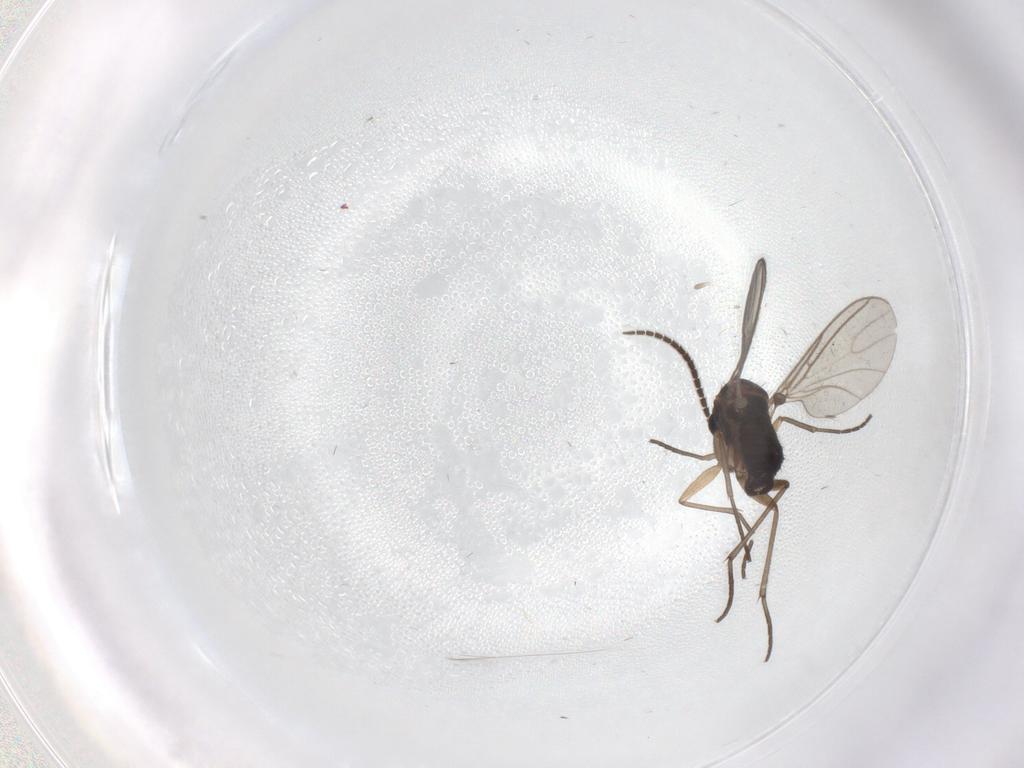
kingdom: Animalia
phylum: Arthropoda
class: Insecta
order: Diptera
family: Sciaridae
